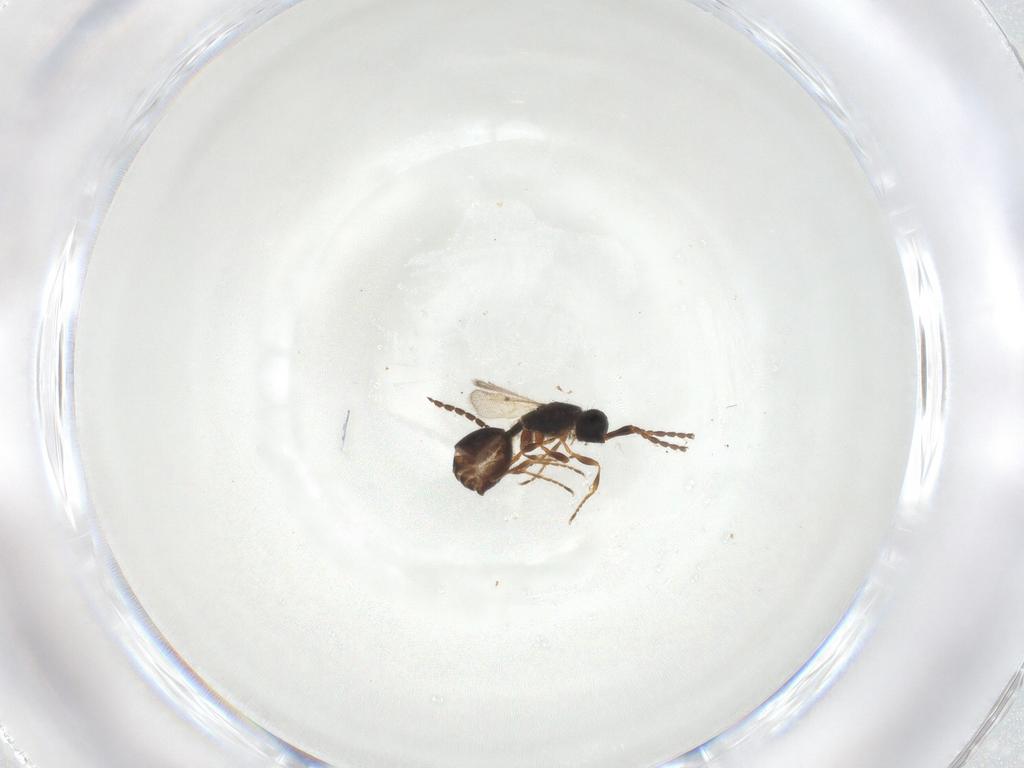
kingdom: Animalia
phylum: Arthropoda
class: Insecta
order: Hymenoptera
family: Diapriidae
